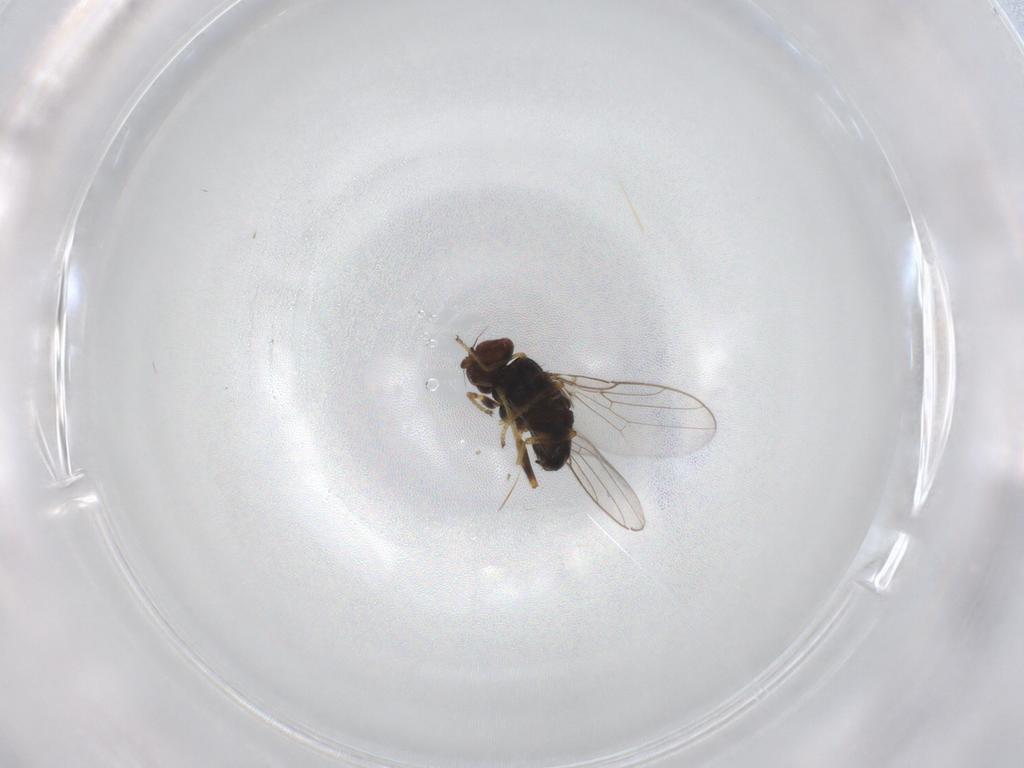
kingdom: Animalia
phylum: Arthropoda
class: Insecta
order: Diptera
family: Chloropidae
